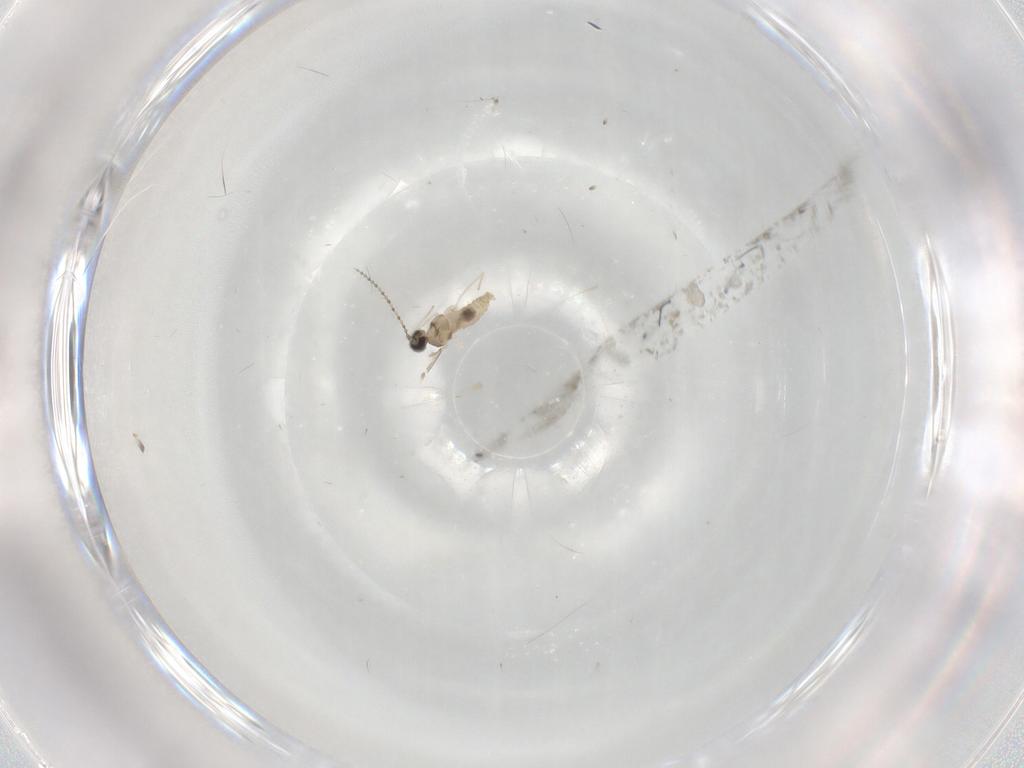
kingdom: Animalia
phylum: Arthropoda
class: Insecta
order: Diptera
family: Cecidomyiidae
